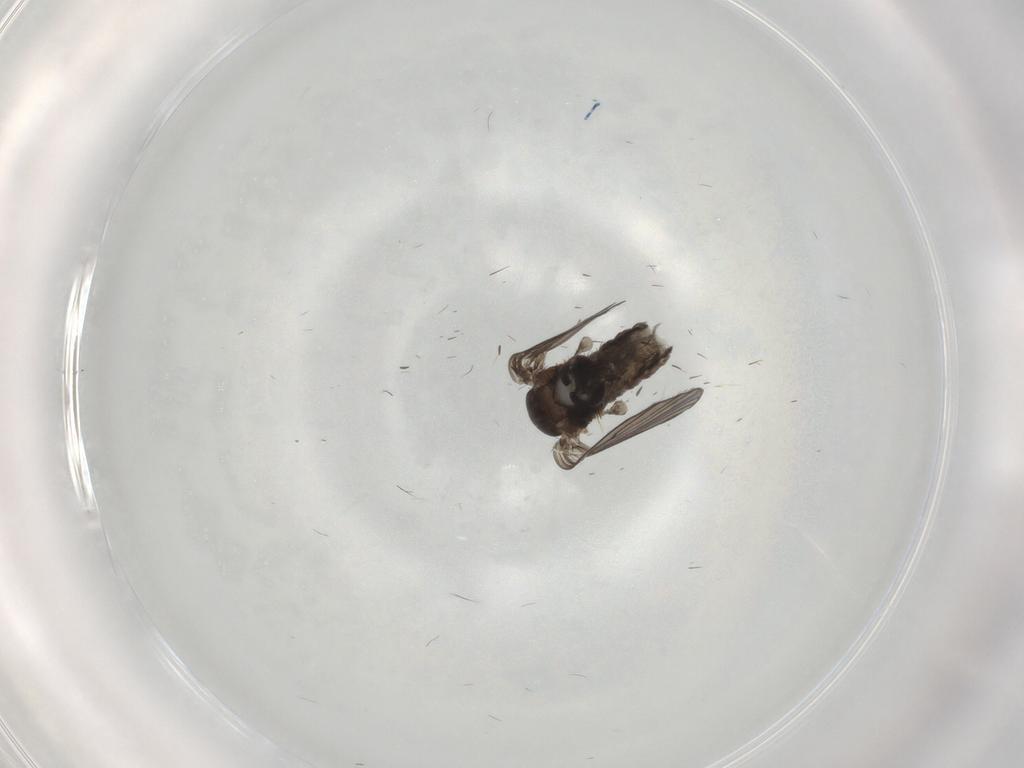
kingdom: Animalia
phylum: Arthropoda
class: Insecta
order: Diptera
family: Psychodidae
